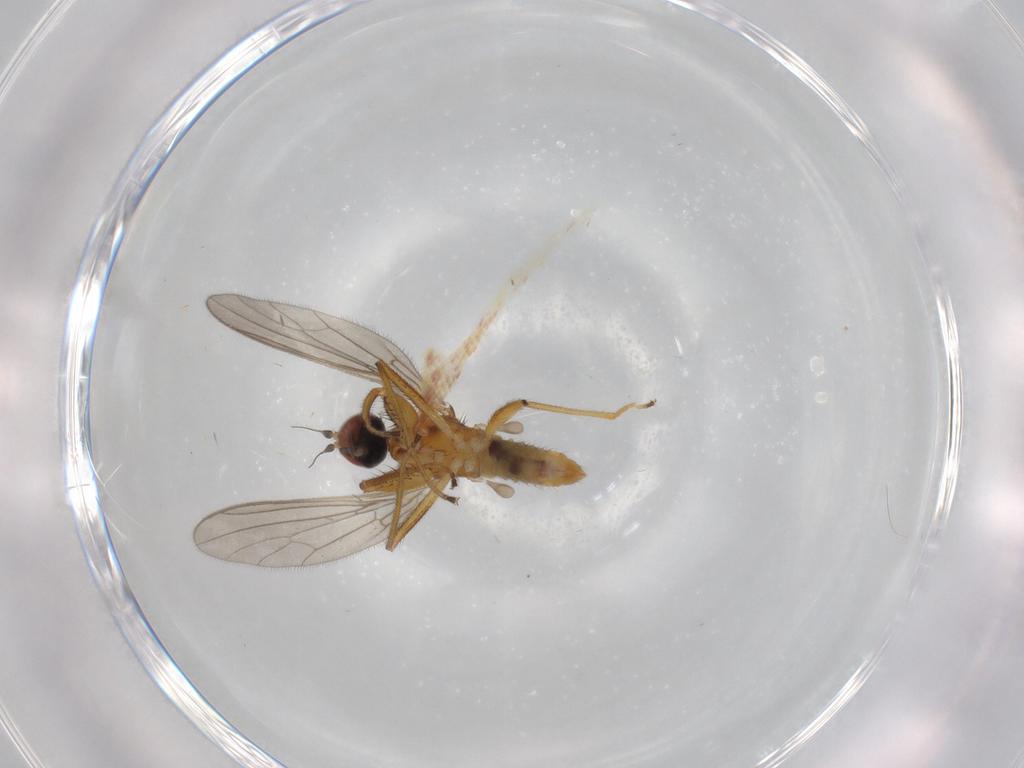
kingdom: Animalia
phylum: Arthropoda
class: Insecta
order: Diptera
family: Empididae
